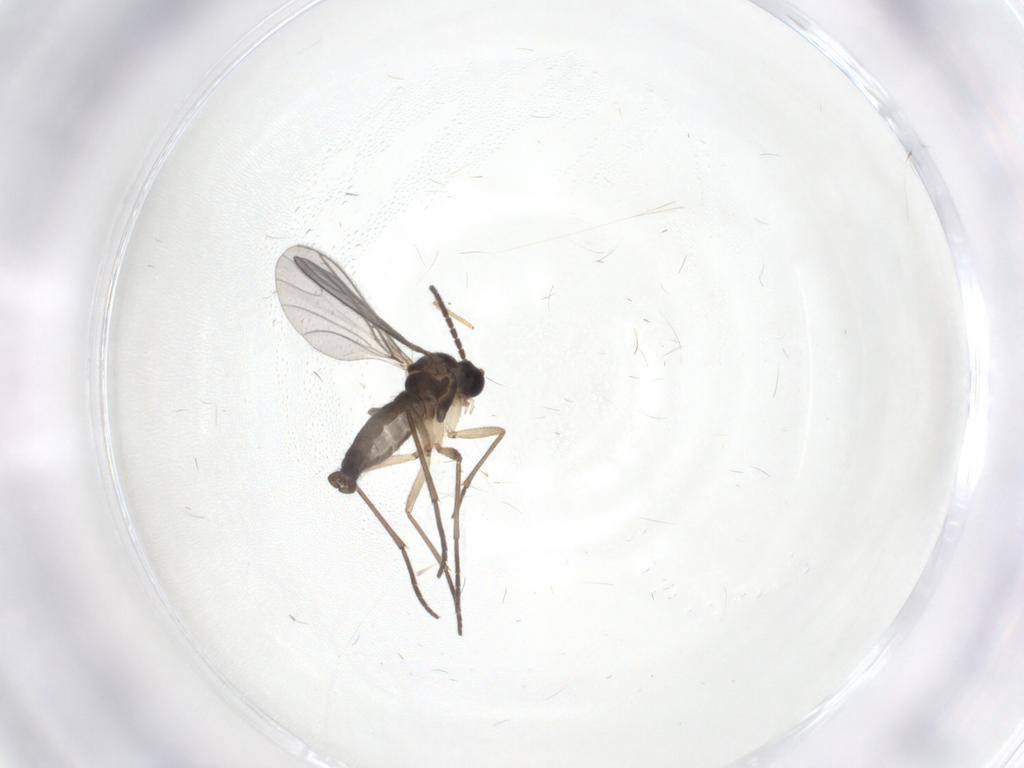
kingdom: Animalia
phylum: Arthropoda
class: Insecta
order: Diptera
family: Sciaridae
